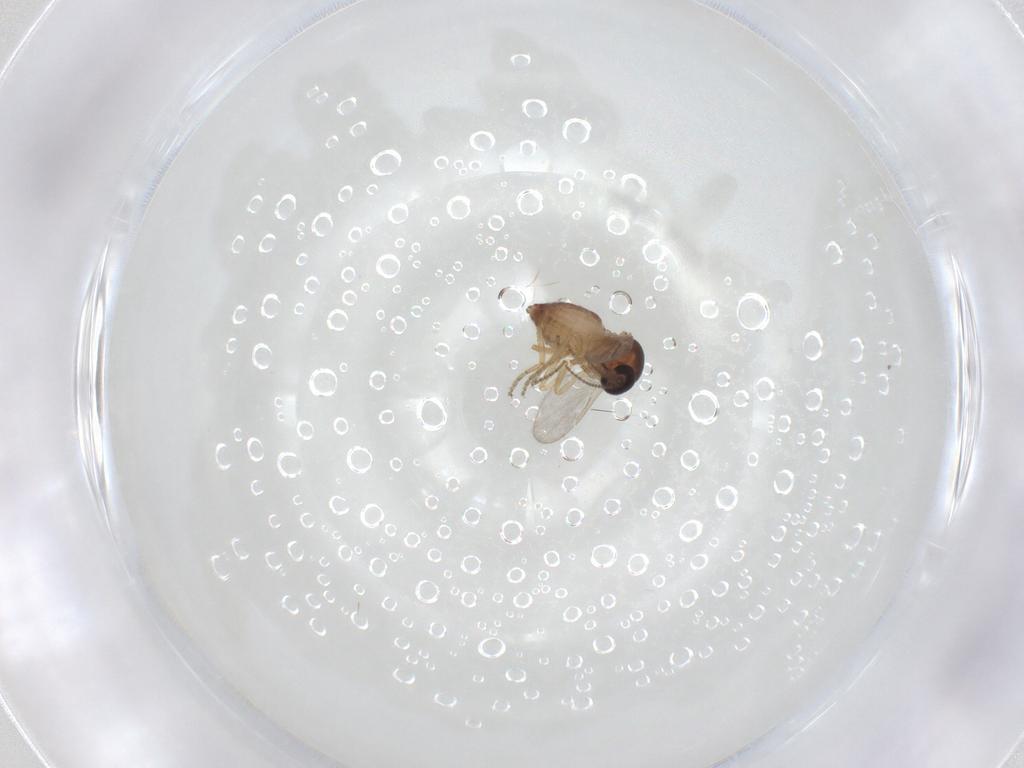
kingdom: Animalia
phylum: Arthropoda
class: Insecta
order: Diptera
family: Ceratopogonidae
